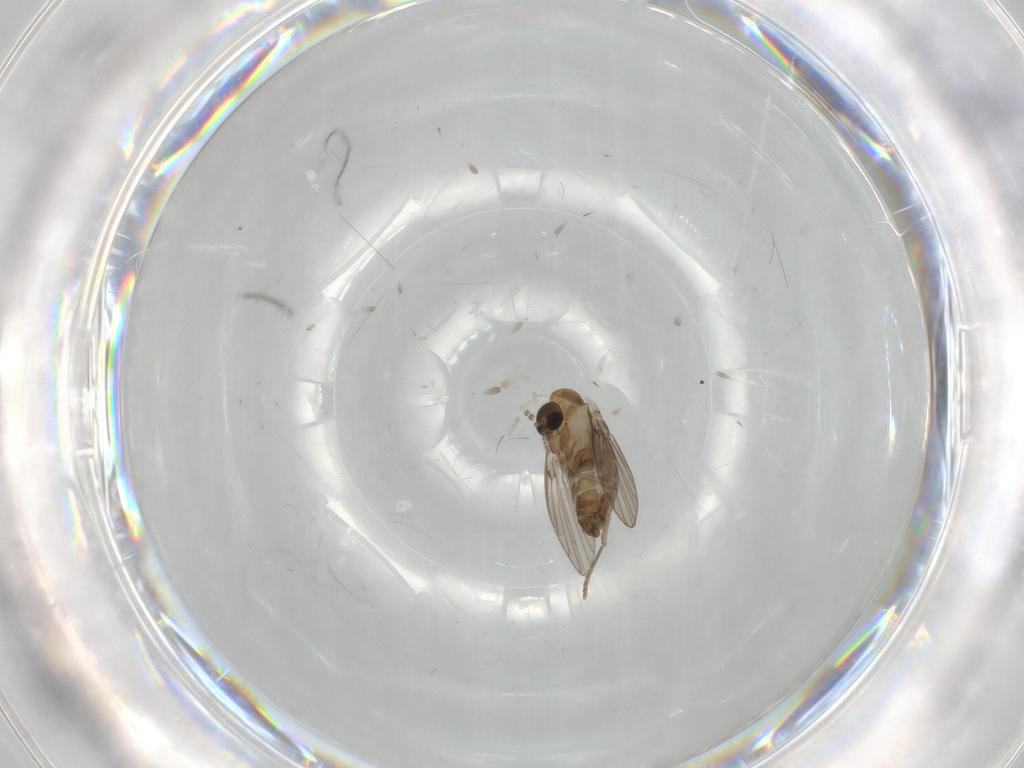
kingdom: Animalia
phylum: Arthropoda
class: Insecta
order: Diptera
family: Psychodidae
